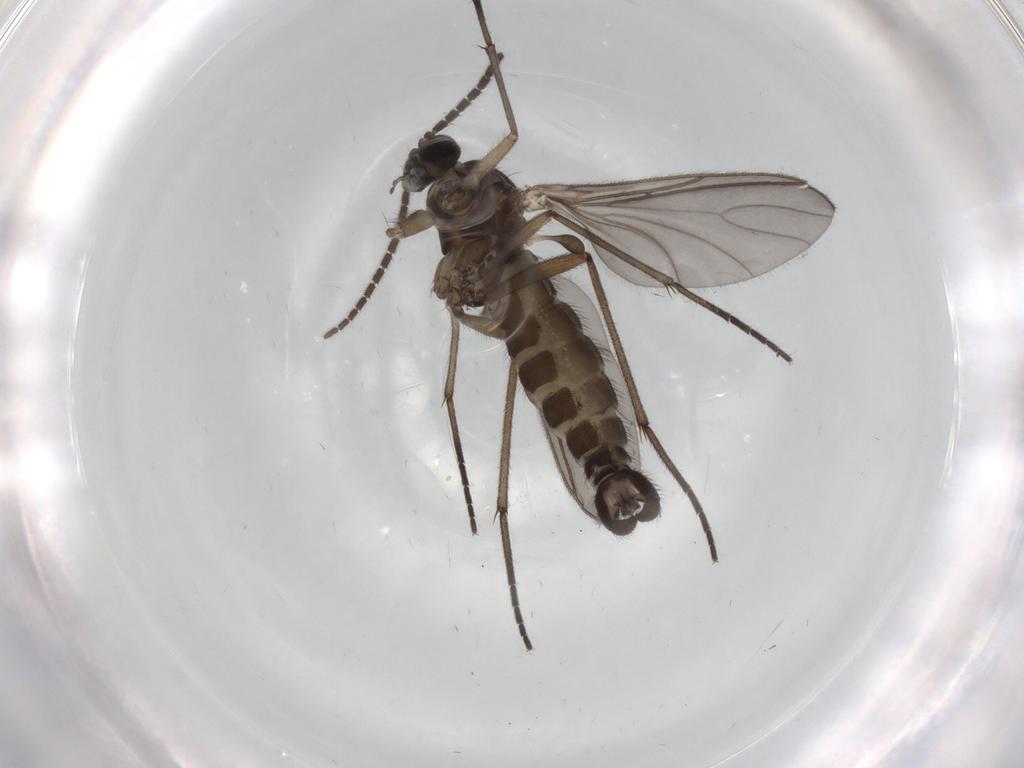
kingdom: Animalia
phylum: Arthropoda
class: Insecta
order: Diptera
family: Sciaridae
